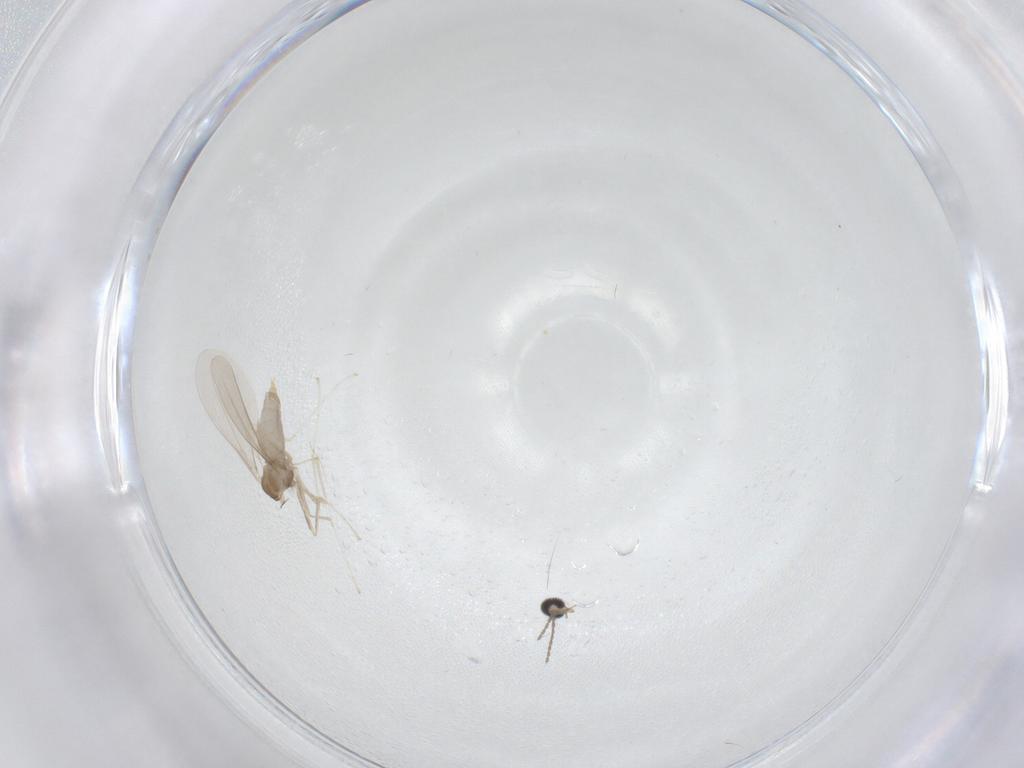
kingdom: Animalia
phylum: Arthropoda
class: Insecta
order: Diptera
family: Cecidomyiidae
